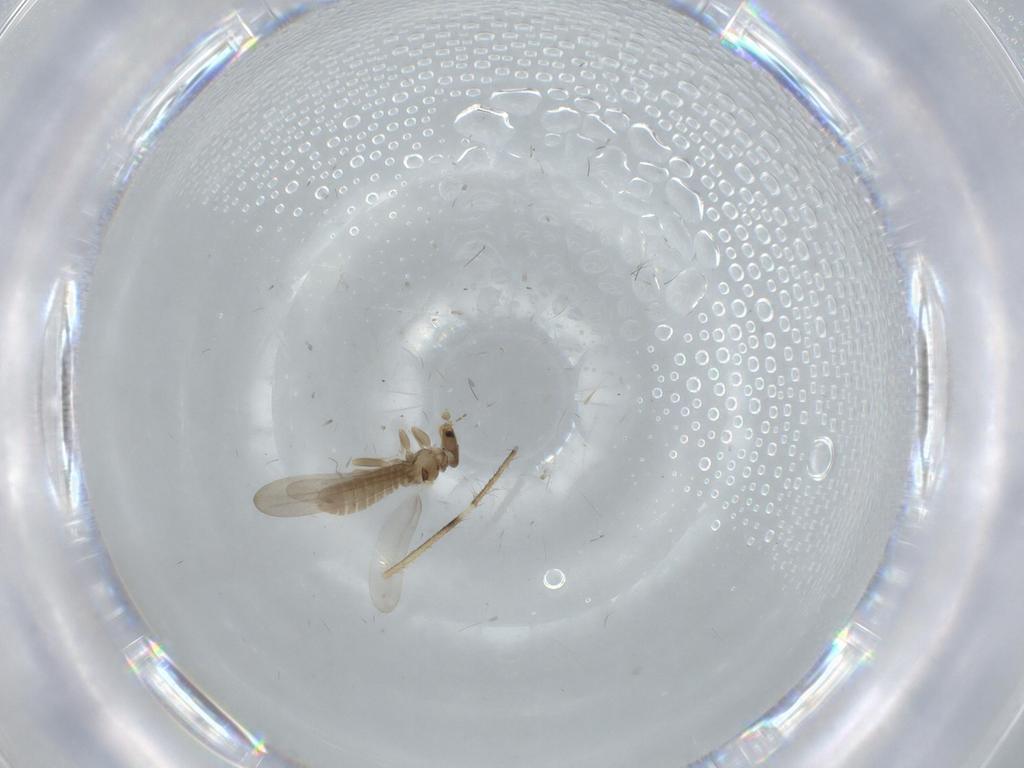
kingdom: Animalia
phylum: Arthropoda
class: Insecta
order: Psocodea
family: Liposcelididae
